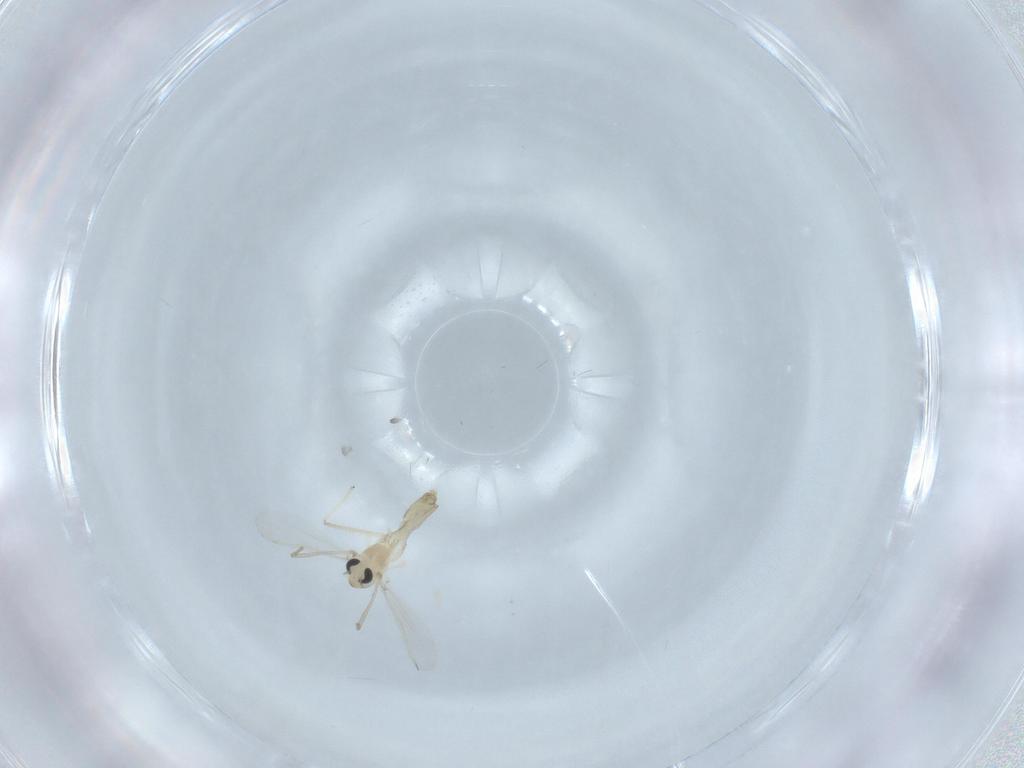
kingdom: Animalia
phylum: Arthropoda
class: Insecta
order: Diptera
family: Chironomidae
